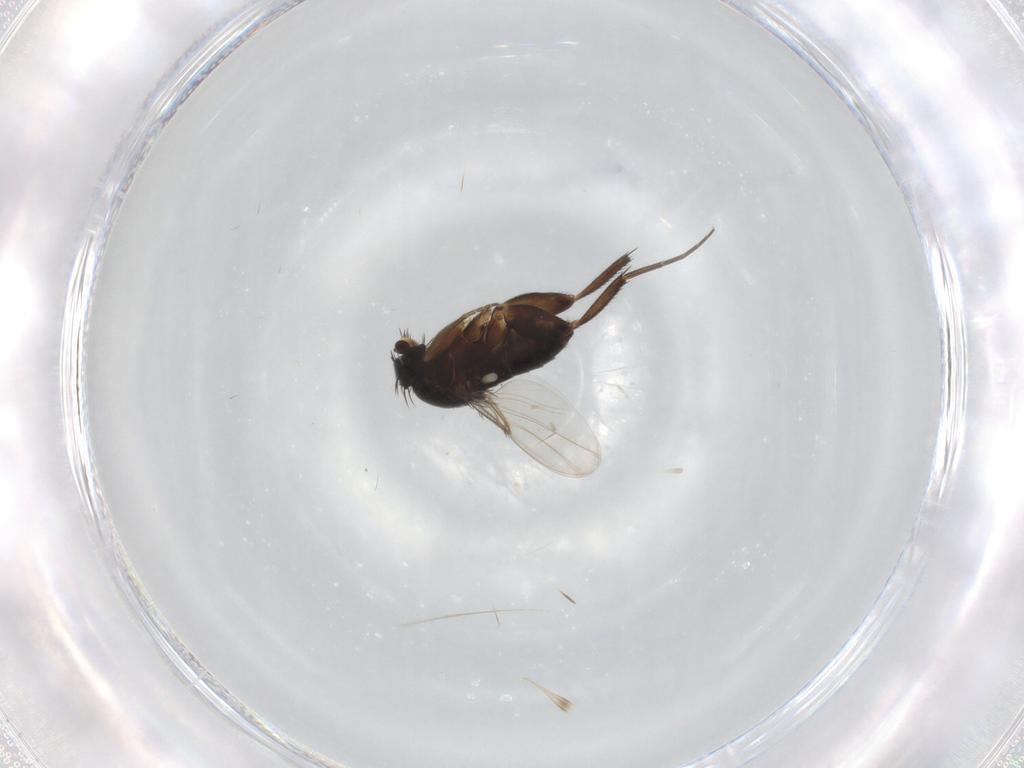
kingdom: Animalia
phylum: Arthropoda
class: Insecta
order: Diptera
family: Phoridae
